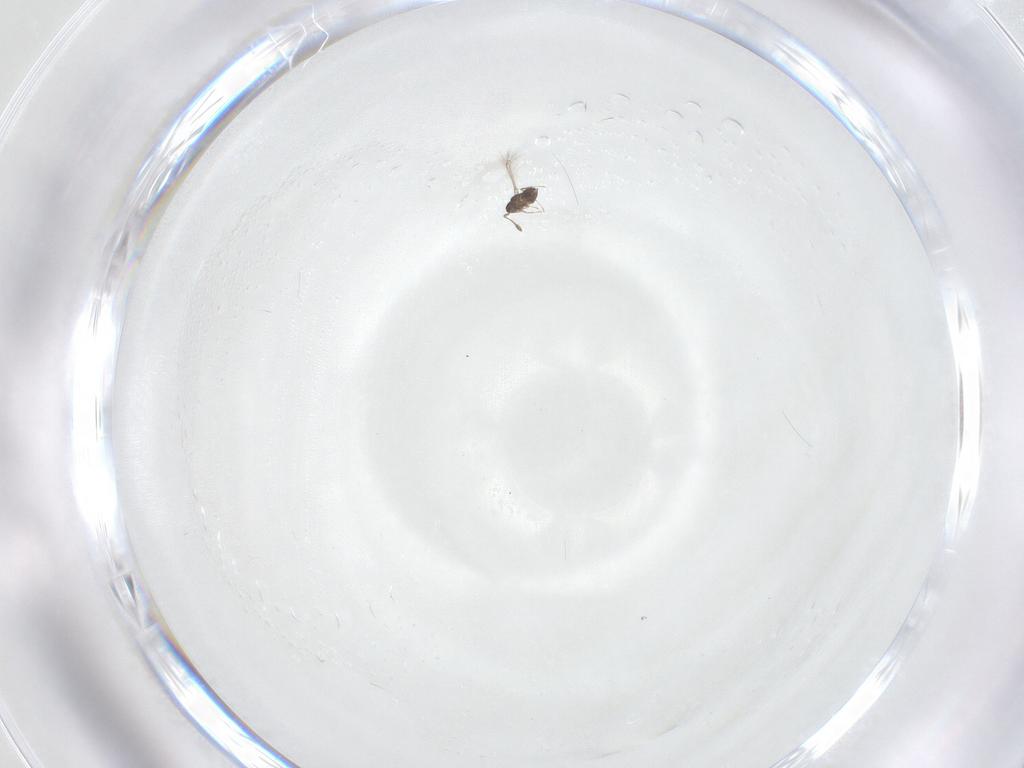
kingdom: Animalia
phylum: Arthropoda
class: Insecta
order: Hymenoptera
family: Mymaridae
